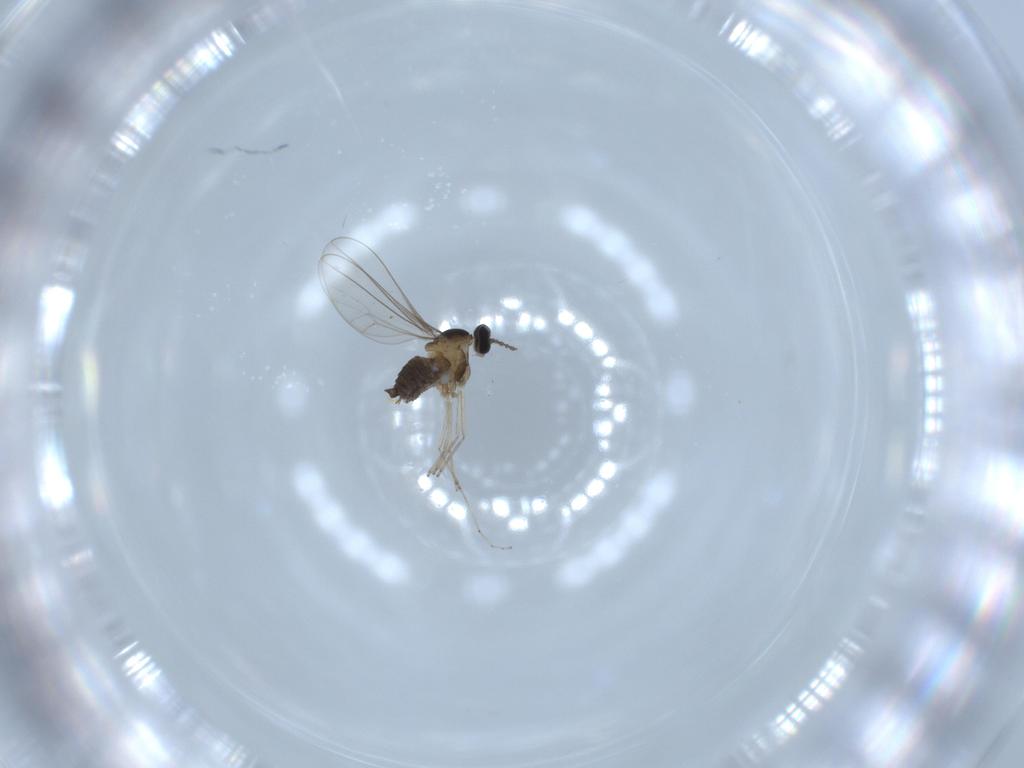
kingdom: Animalia
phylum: Arthropoda
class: Insecta
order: Diptera
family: Cecidomyiidae
